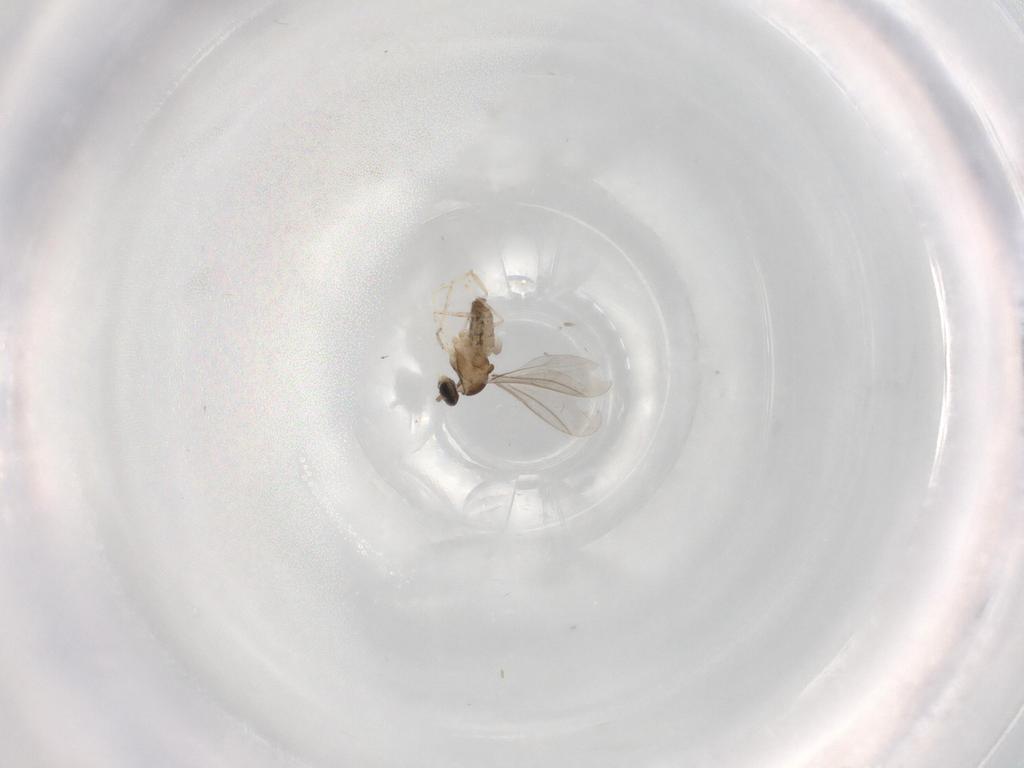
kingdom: Animalia
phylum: Arthropoda
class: Insecta
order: Diptera
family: Cecidomyiidae
